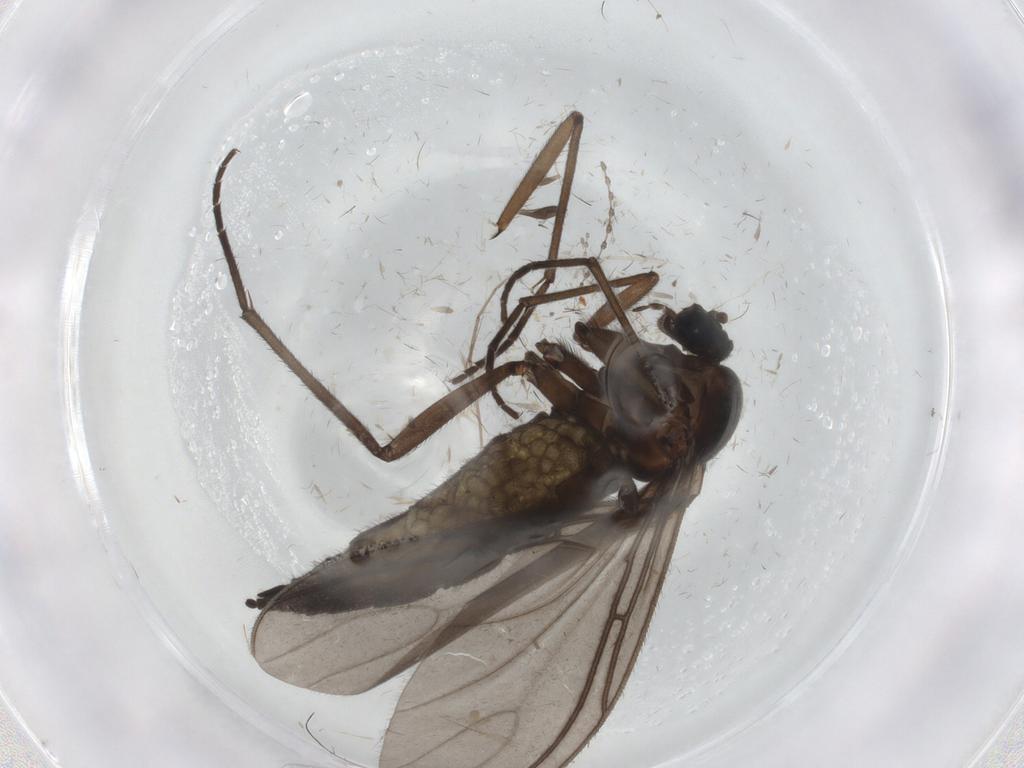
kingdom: Animalia
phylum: Arthropoda
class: Insecta
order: Diptera
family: Sciaridae
